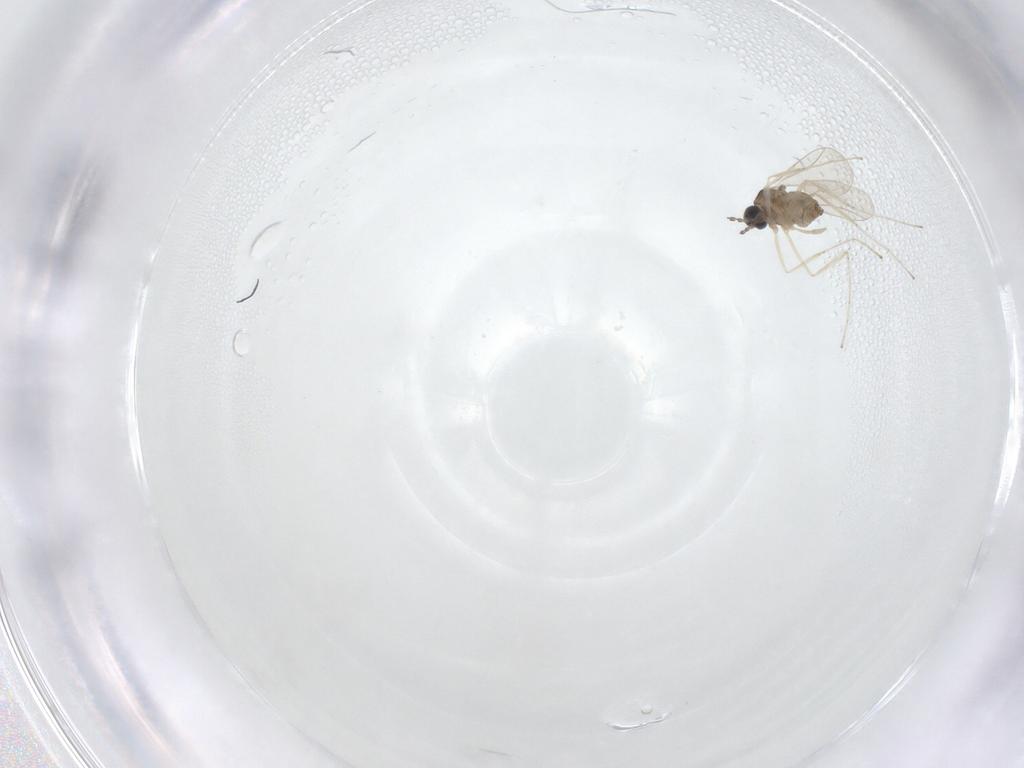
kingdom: Animalia
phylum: Arthropoda
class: Insecta
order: Diptera
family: Cecidomyiidae
